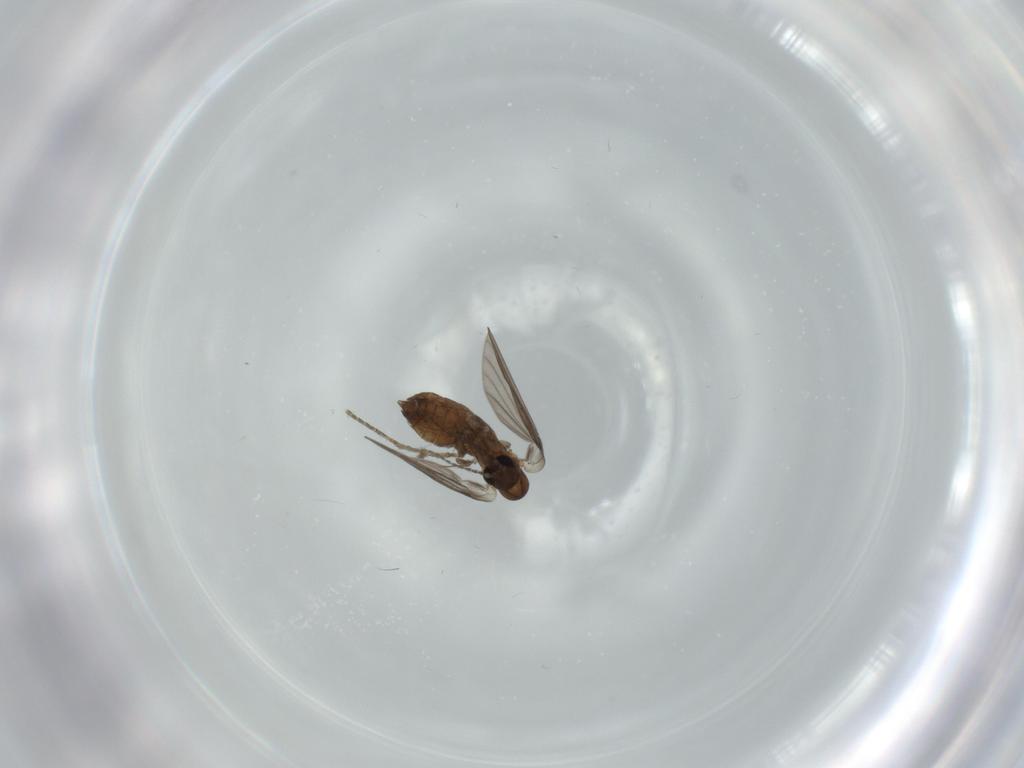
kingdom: Animalia
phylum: Arthropoda
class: Insecta
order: Diptera
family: Psychodidae
